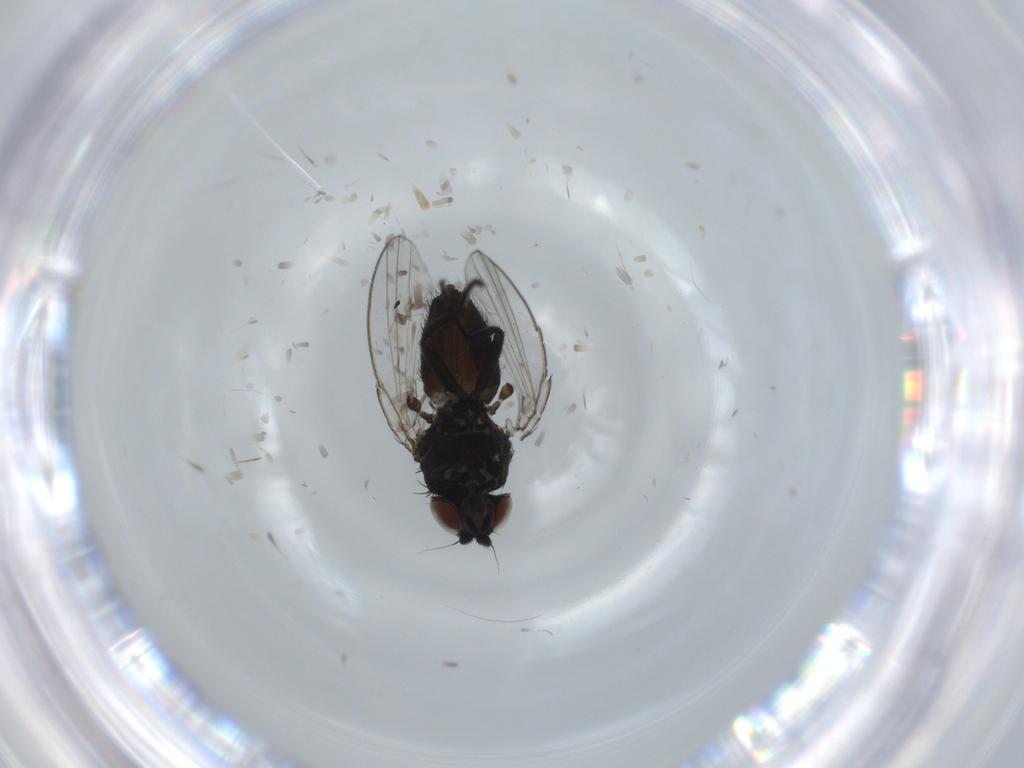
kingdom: Animalia
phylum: Arthropoda
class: Insecta
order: Diptera
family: Milichiidae
